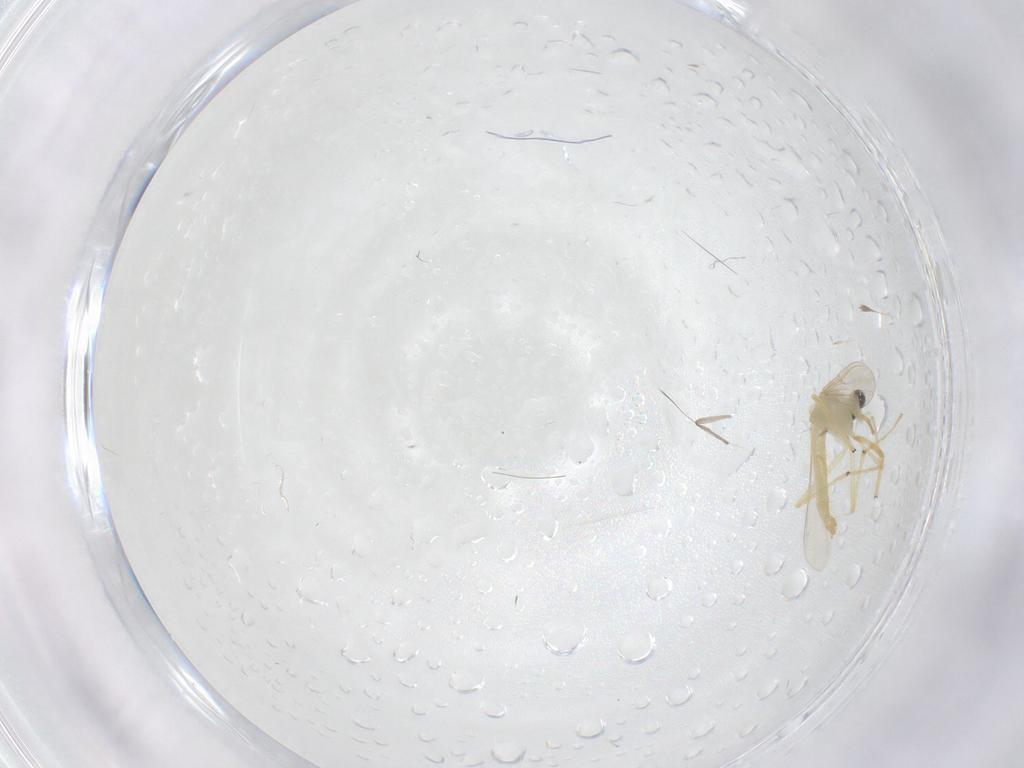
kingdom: Animalia
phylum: Arthropoda
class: Insecta
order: Diptera
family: Chironomidae
